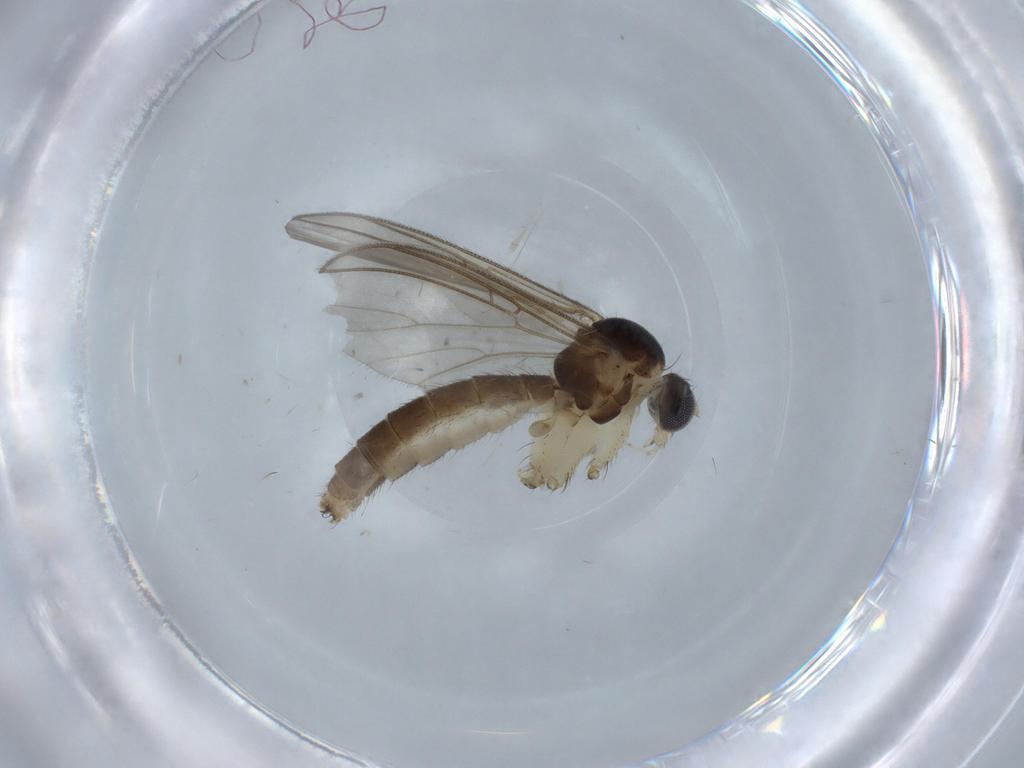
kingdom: Animalia
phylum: Arthropoda
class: Insecta
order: Diptera
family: Mycetophilidae
